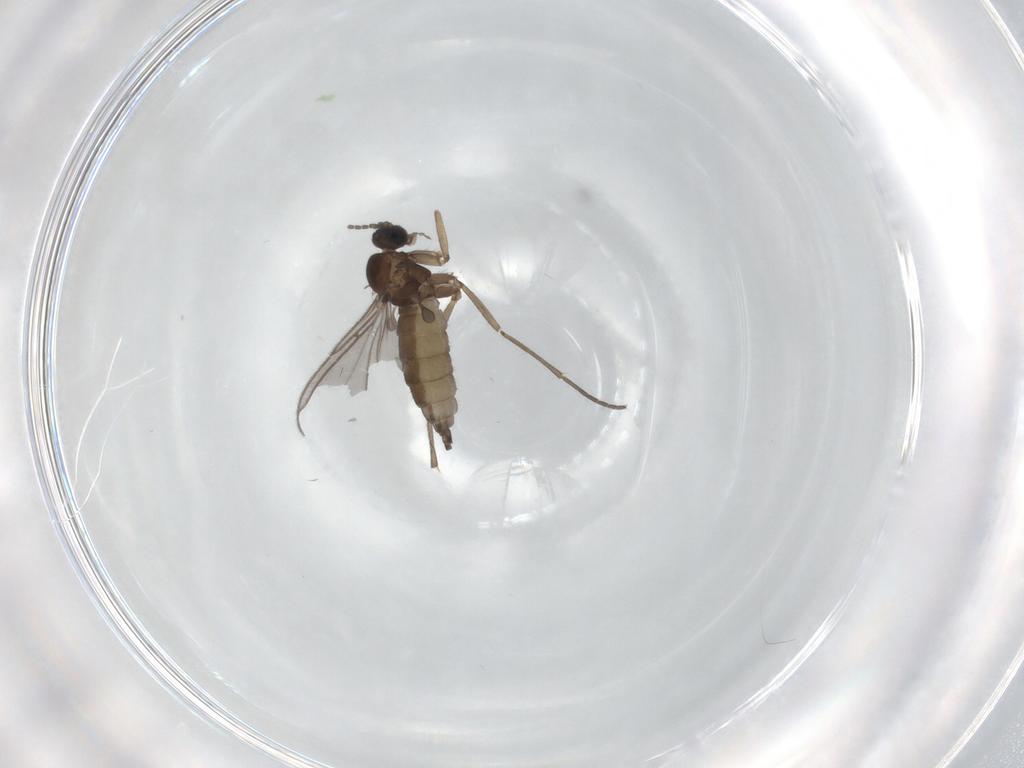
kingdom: Animalia
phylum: Arthropoda
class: Insecta
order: Diptera
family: Sciaridae
